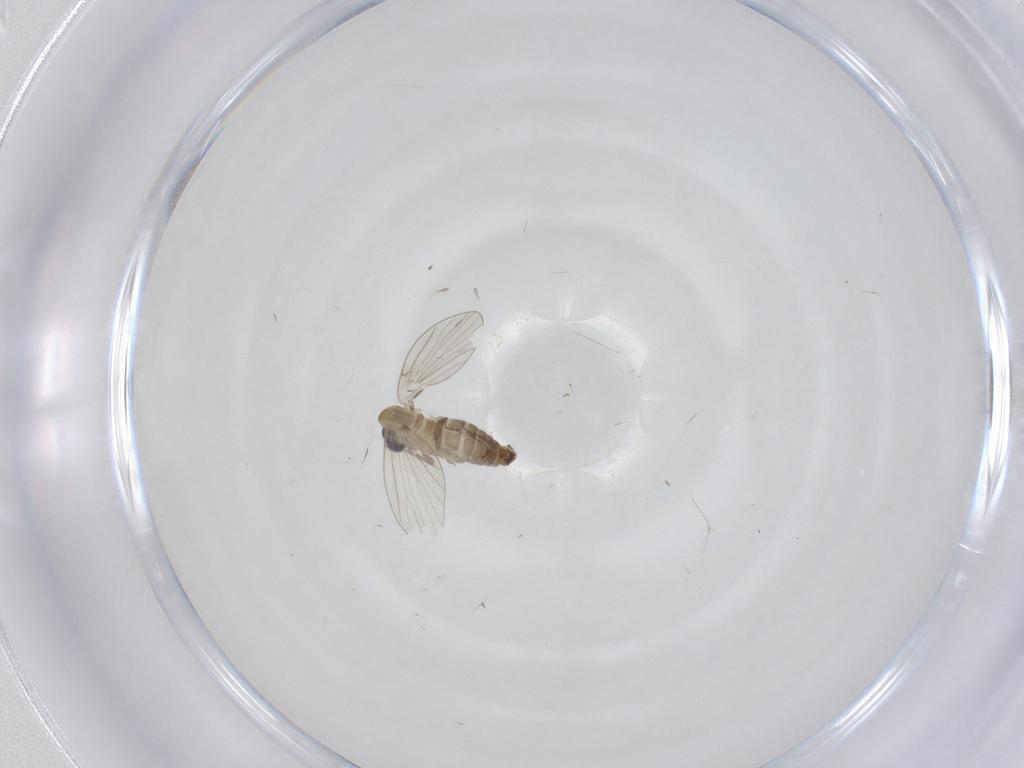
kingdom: Animalia
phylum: Arthropoda
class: Insecta
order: Diptera
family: Psychodidae
